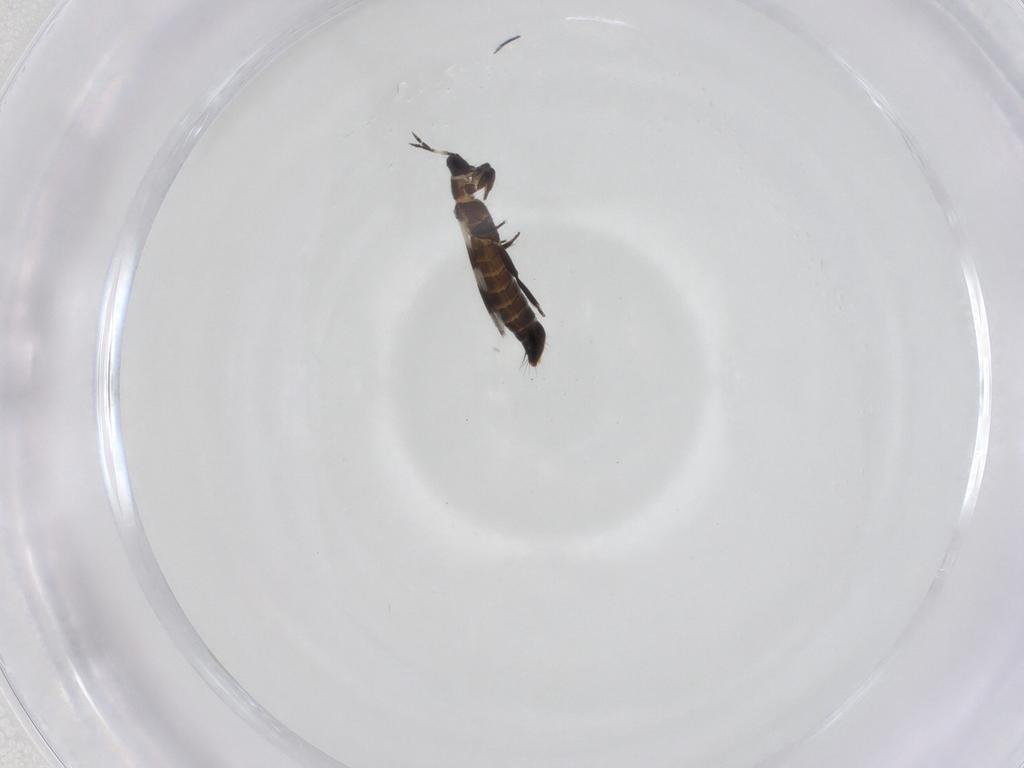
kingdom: Animalia
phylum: Arthropoda
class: Insecta
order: Thysanoptera
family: Aeolothripidae
